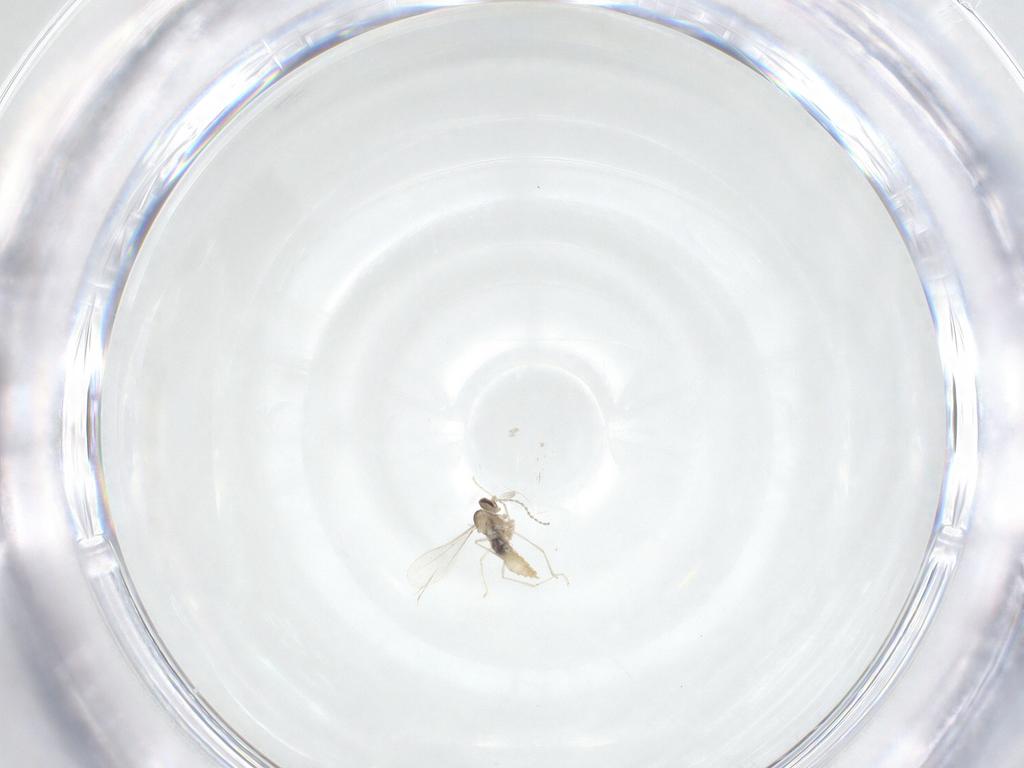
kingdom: Animalia
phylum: Arthropoda
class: Insecta
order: Diptera
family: Cecidomyiidae
